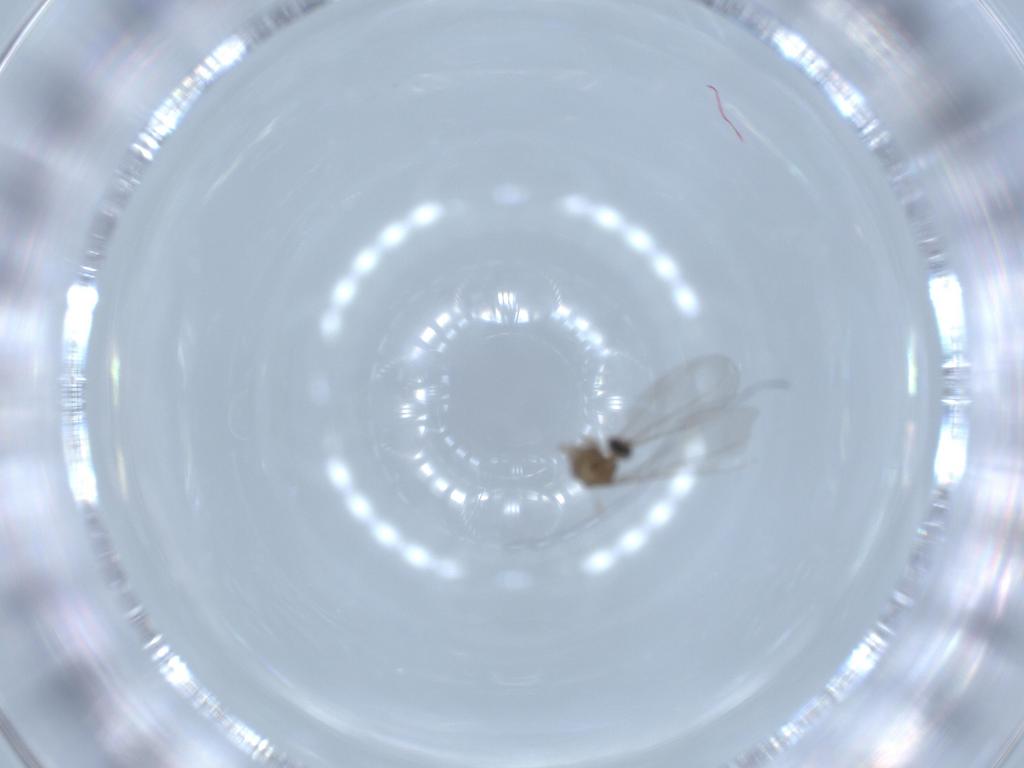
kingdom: Animalia
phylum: Arthropoda
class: Insecta
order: Diptera
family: Cecidomyiidae
